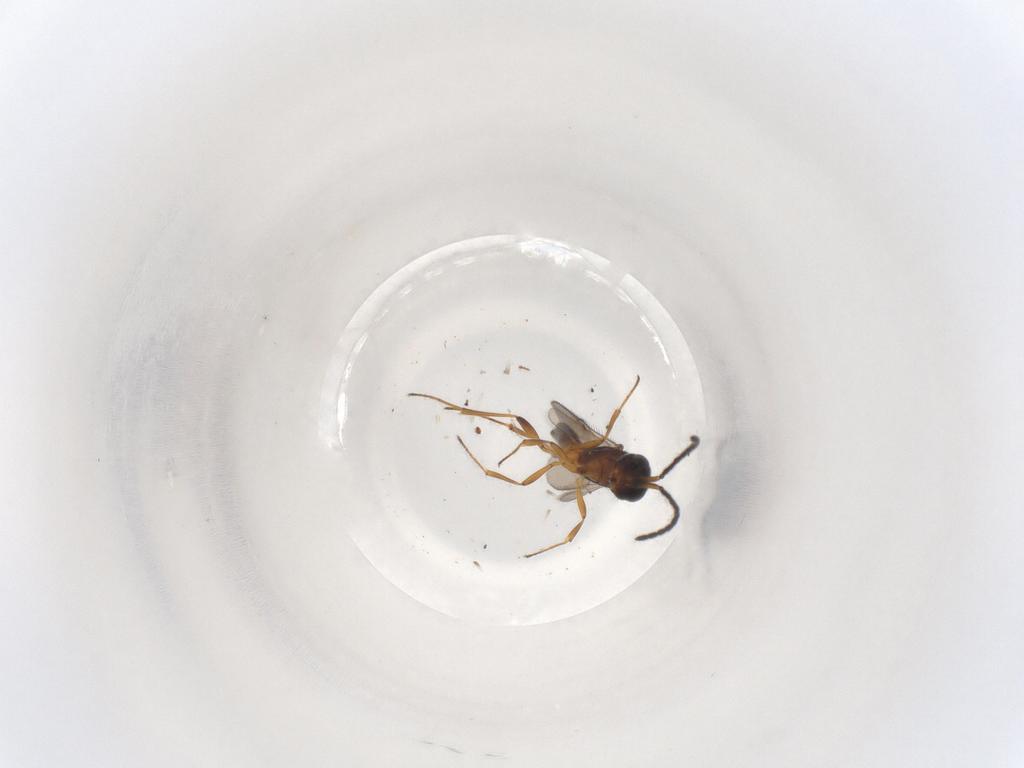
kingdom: Animalia
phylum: Arthropoda
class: Insecta
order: Hymenoptera
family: Scelionidae
